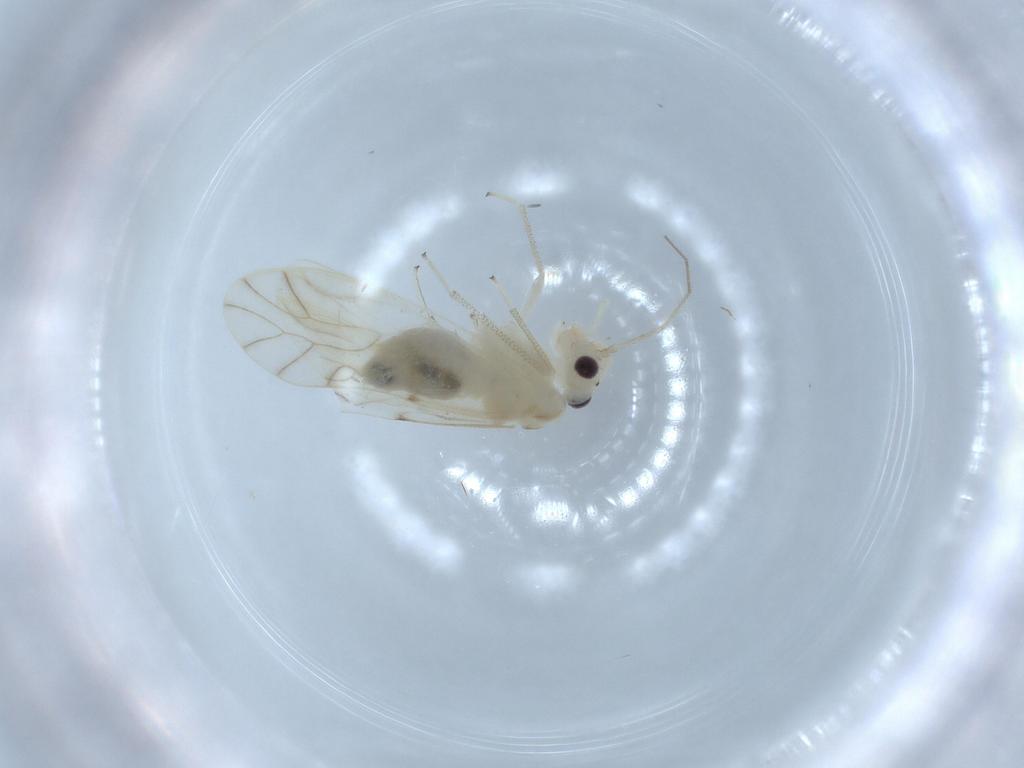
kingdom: Animalia
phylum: Arthropoda
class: Insecta
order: Psocodea
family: Caeciliusidae
